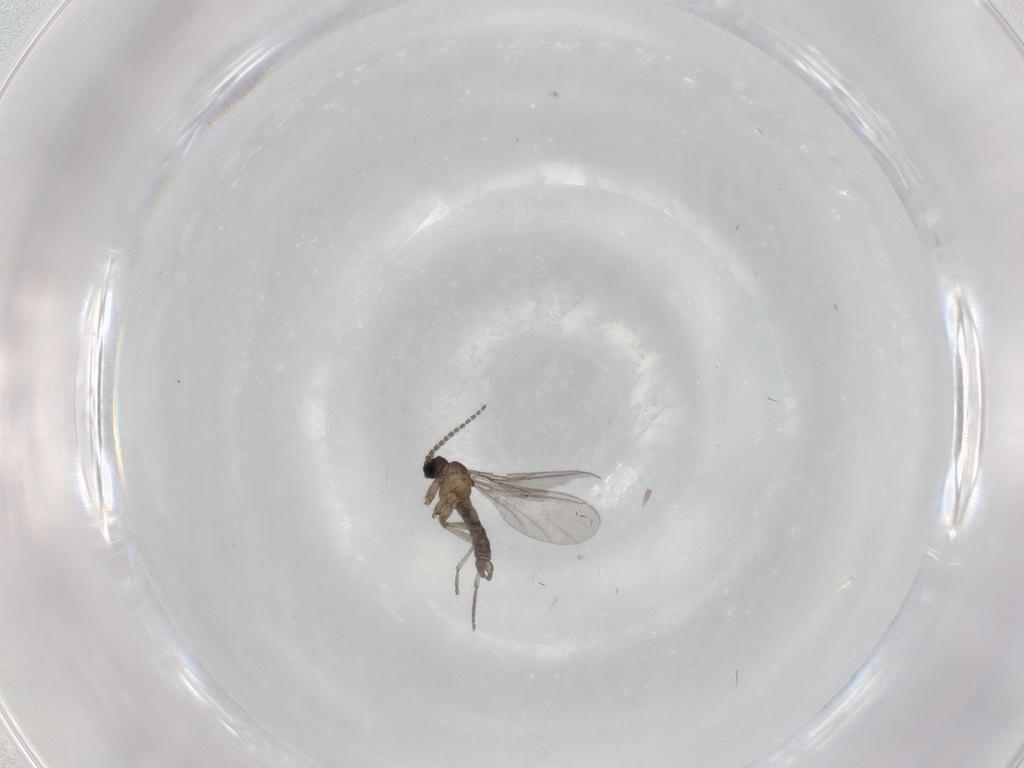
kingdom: Animalia
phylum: Arthropoda
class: Insecta
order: Diptera
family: Sciaridae
